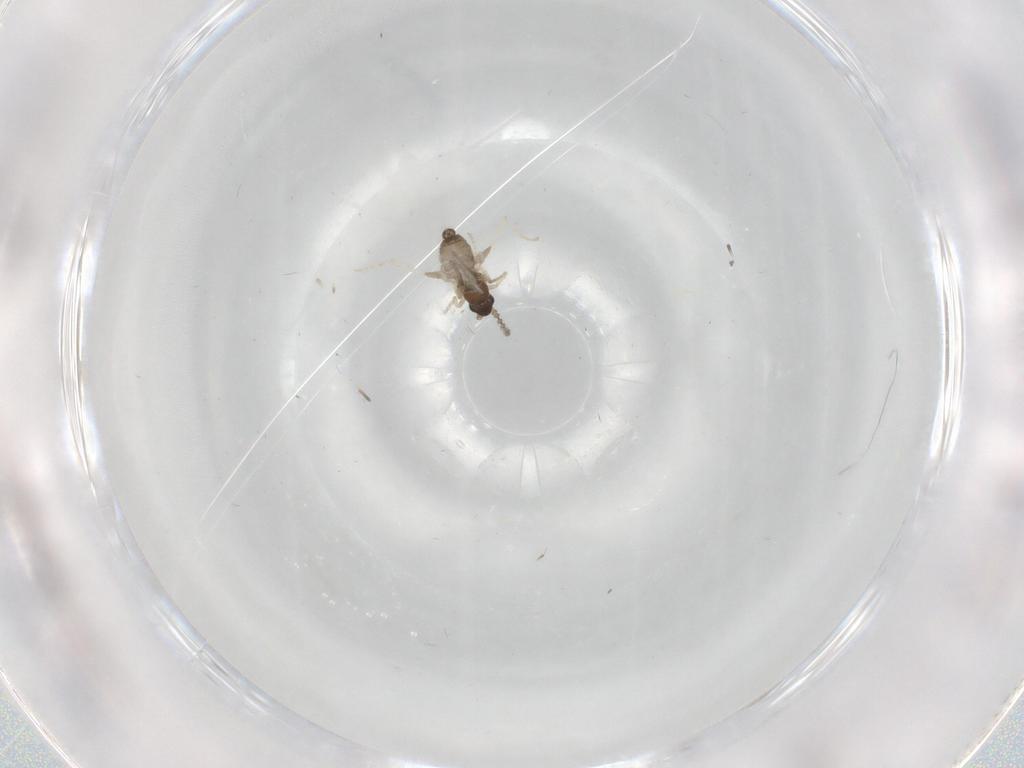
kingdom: Animalia
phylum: Arthropoda
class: Insecta
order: Diptera
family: Cecidomyiidae
